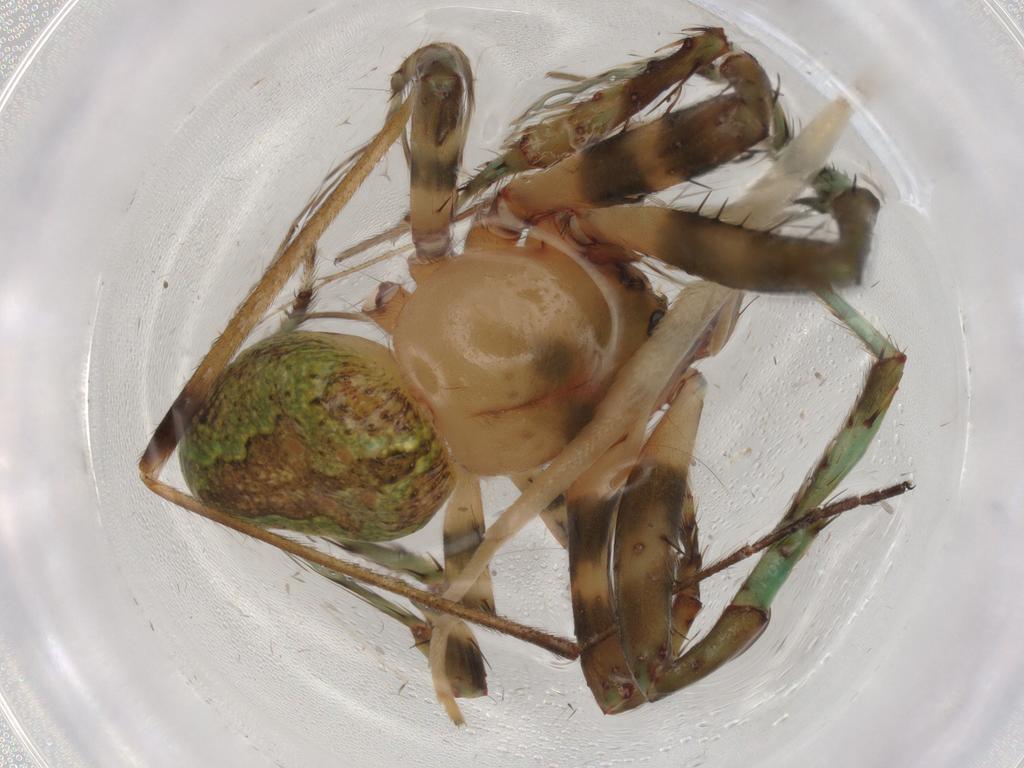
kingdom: Animalia
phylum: Arthropoda
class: Arachnida
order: Araneae
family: Araneidae
